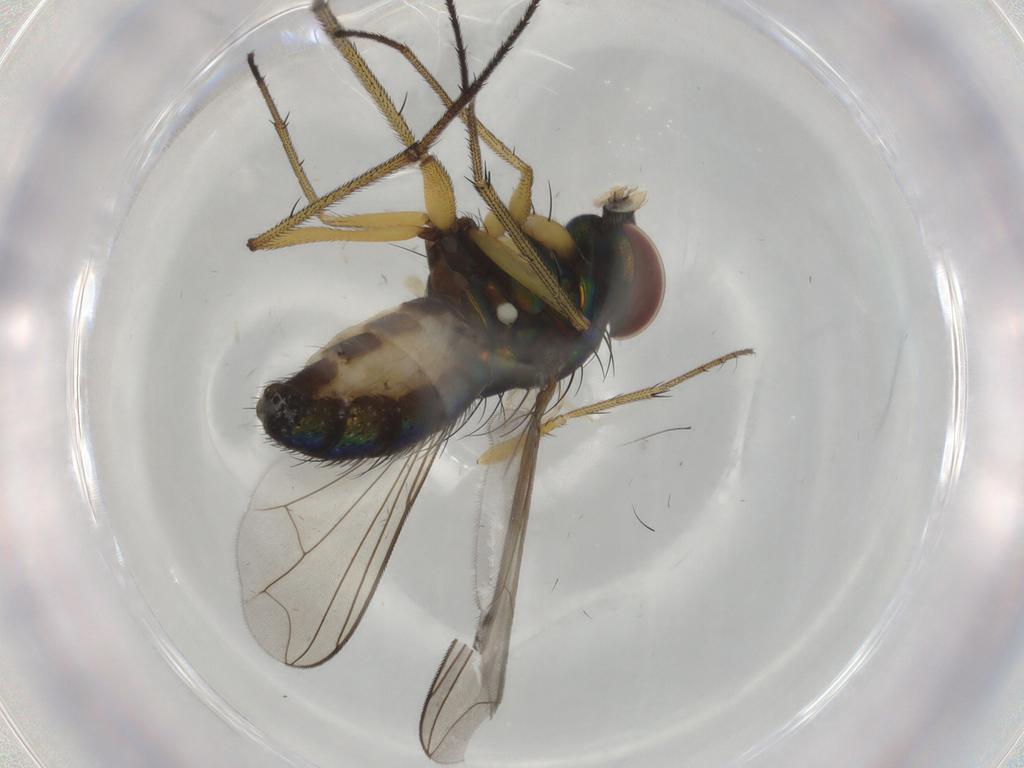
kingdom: Animalia
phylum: Arthropoda
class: Insecta
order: Diptera
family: Dolichopodidae
